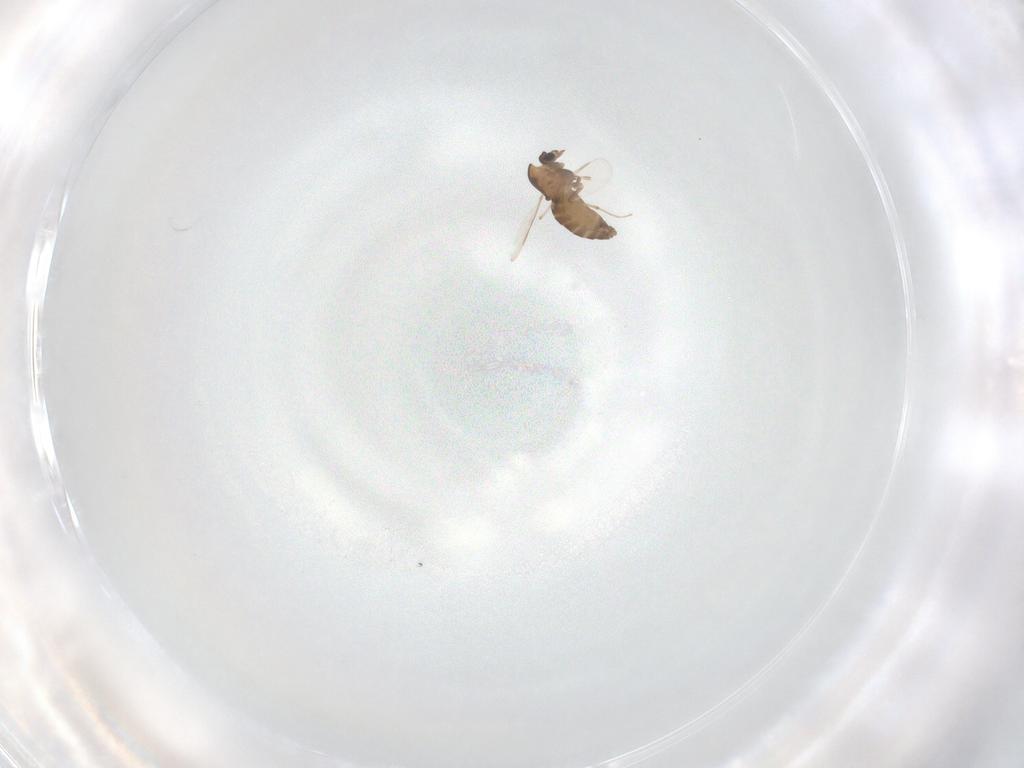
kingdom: Animalia
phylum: Arthropoda
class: Insecta
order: Diptera
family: Chironomidae
